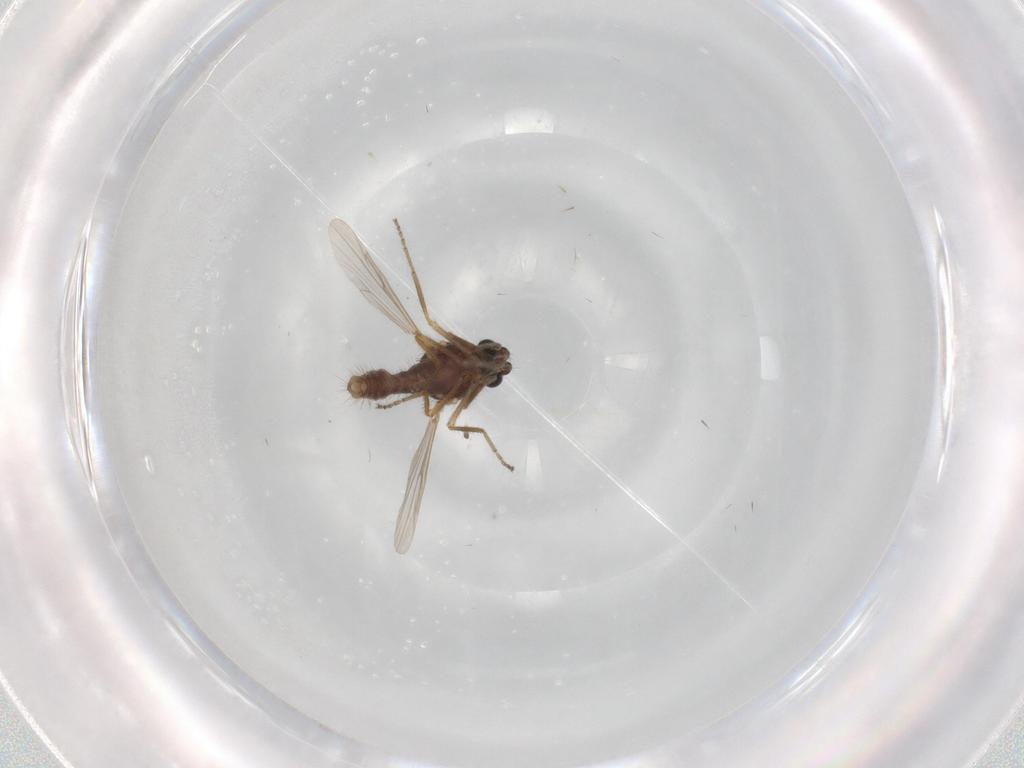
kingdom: Animalia
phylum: Arthropoda
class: Insecta
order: Diptera
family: Ceratopogonidae
